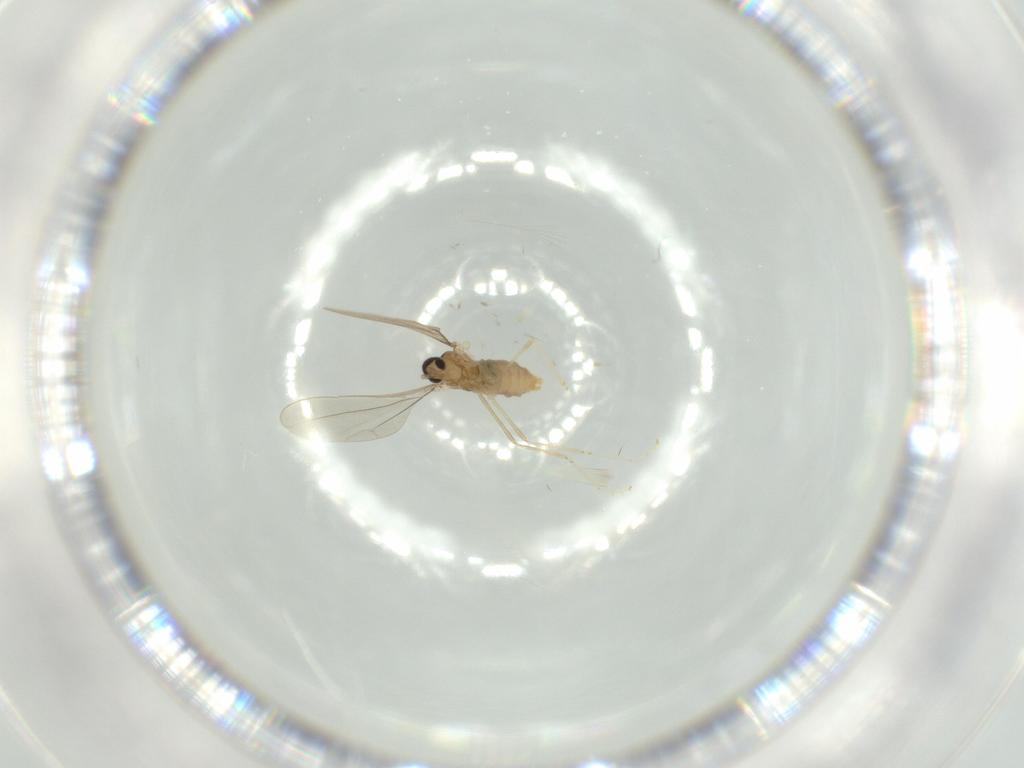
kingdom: Animalia
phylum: Arthropoda
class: Insecta
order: Diptera
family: Cecidomyiidae
